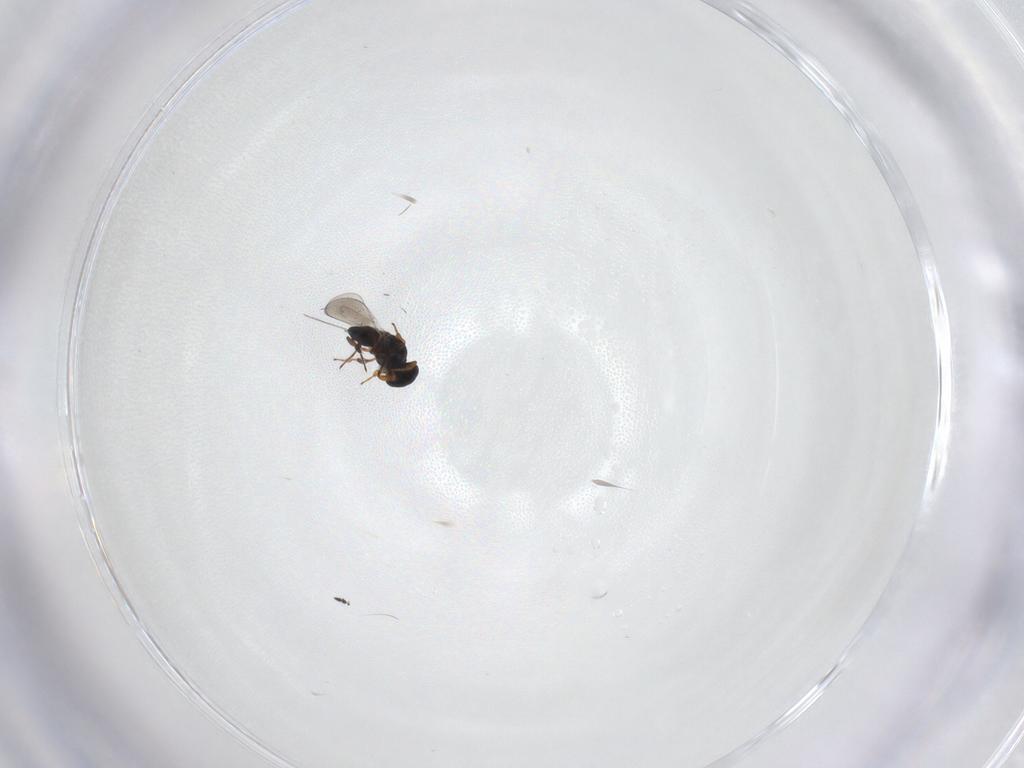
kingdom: Animalia
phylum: Arthropoda
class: Insecta
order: Hymenoptera
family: Platygastridae
